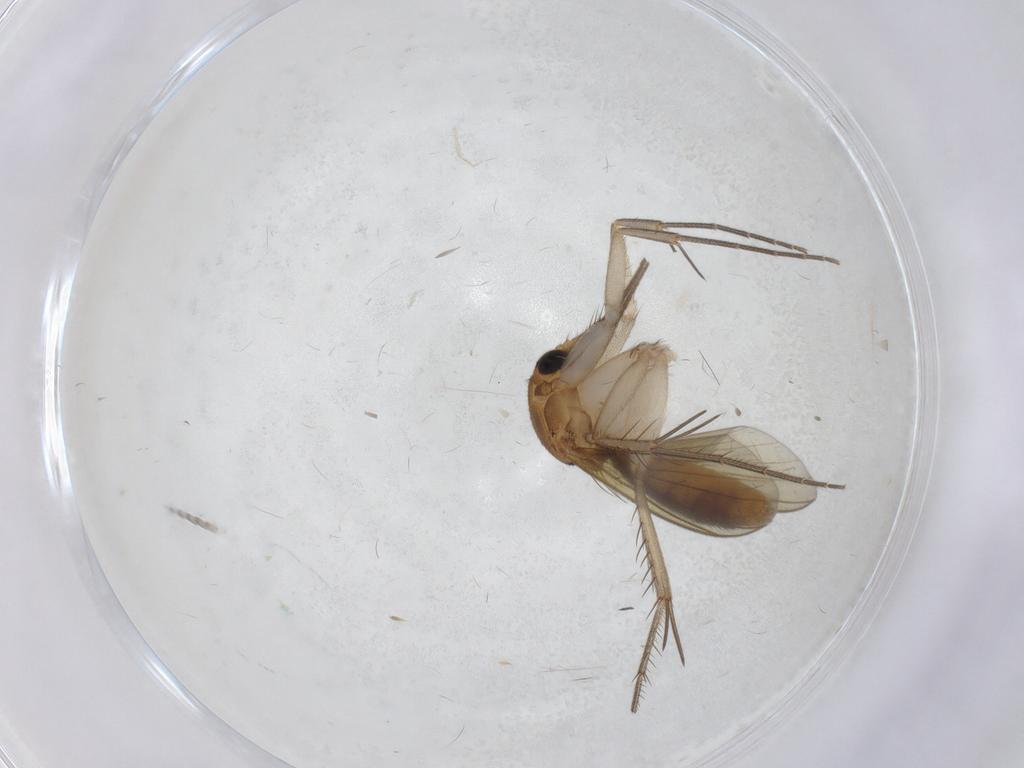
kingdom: Animalia
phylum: Arthropoda
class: Insecta
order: Diptera
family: Mycetophilidae
